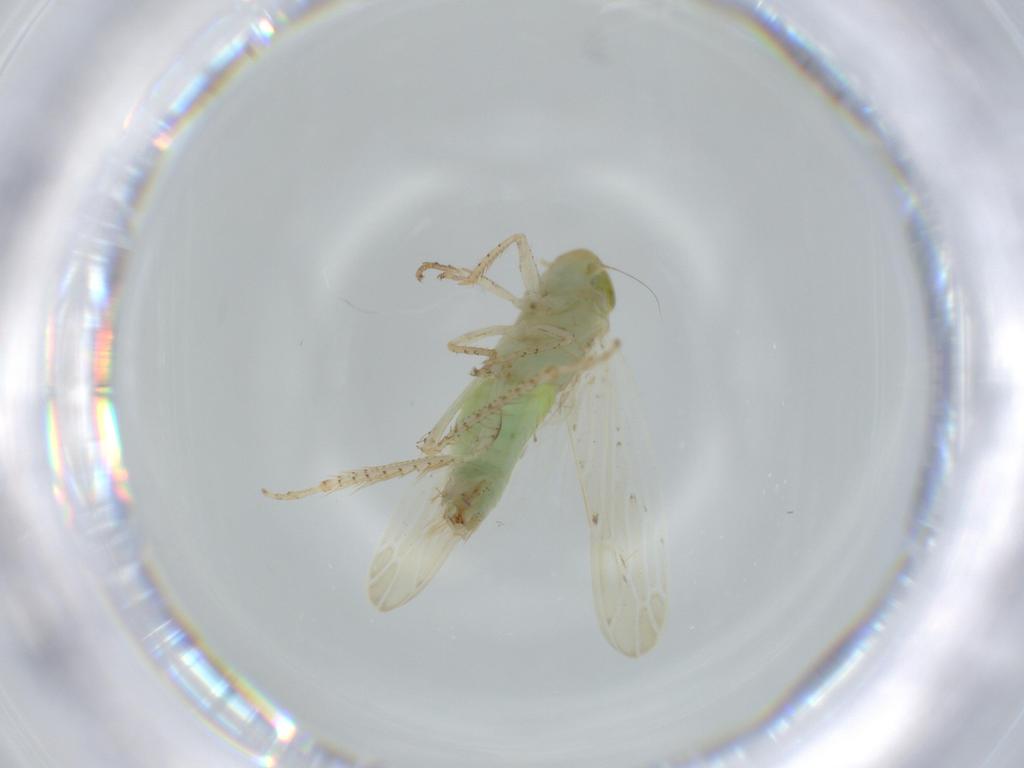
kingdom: Animalia
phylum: Arthropoda
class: Insecta
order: Hemiptera
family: Cicadellidae
